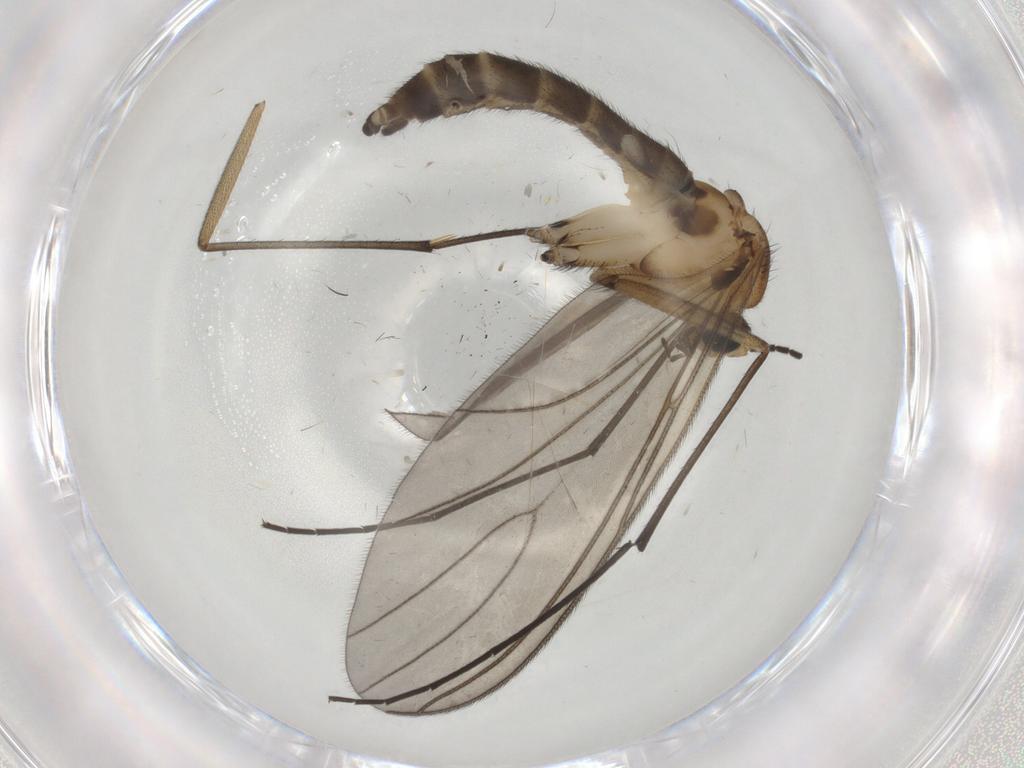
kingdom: Animalia
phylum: Arthropoda
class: Insecta
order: Diptera
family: Sciaridae
